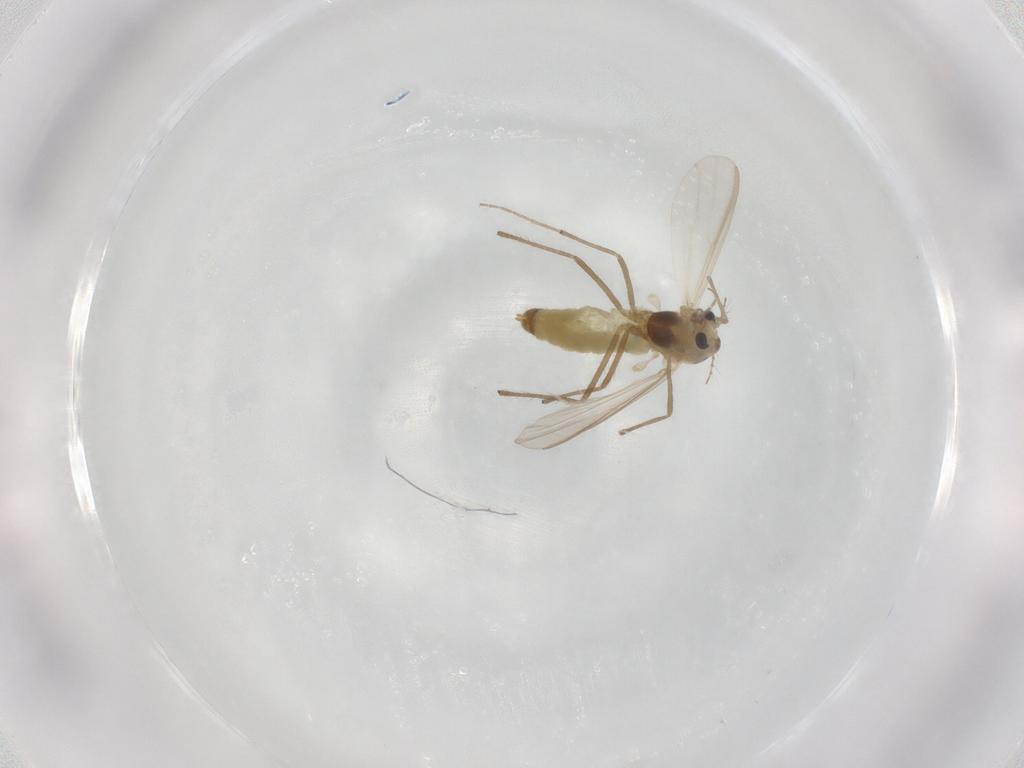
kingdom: Animalia
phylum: Arthropoda
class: Insecta
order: Diptera
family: Chironomidae
